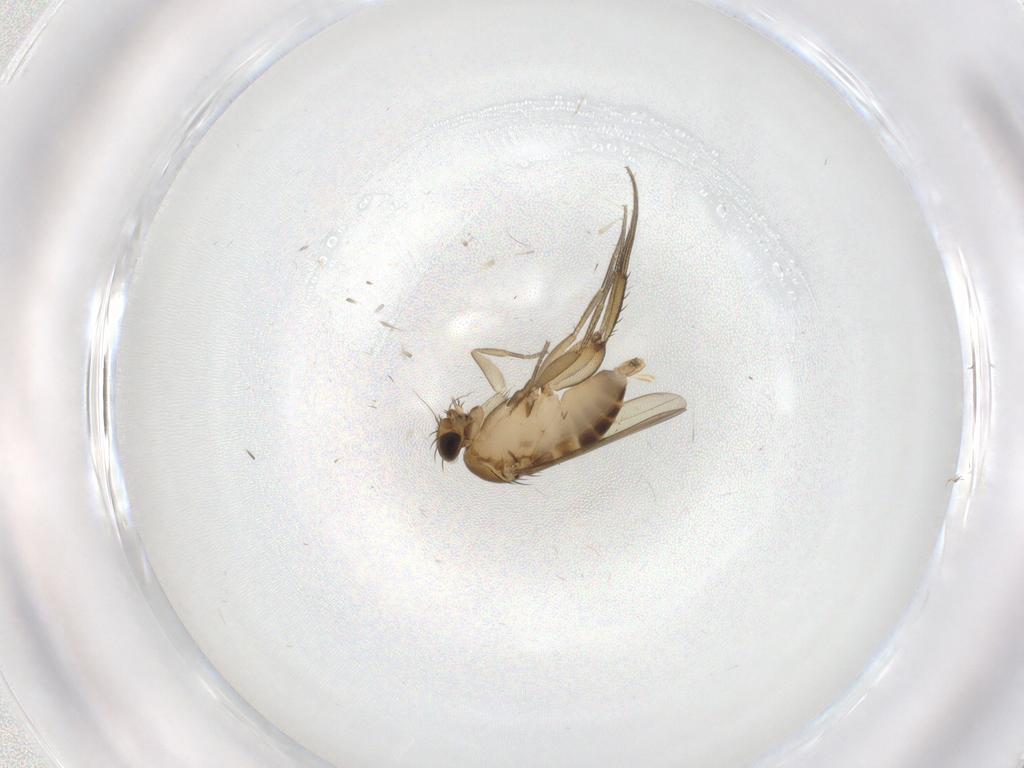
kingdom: Animalia
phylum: Arthropoda
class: Insecta
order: Diptera
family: Phoridae
